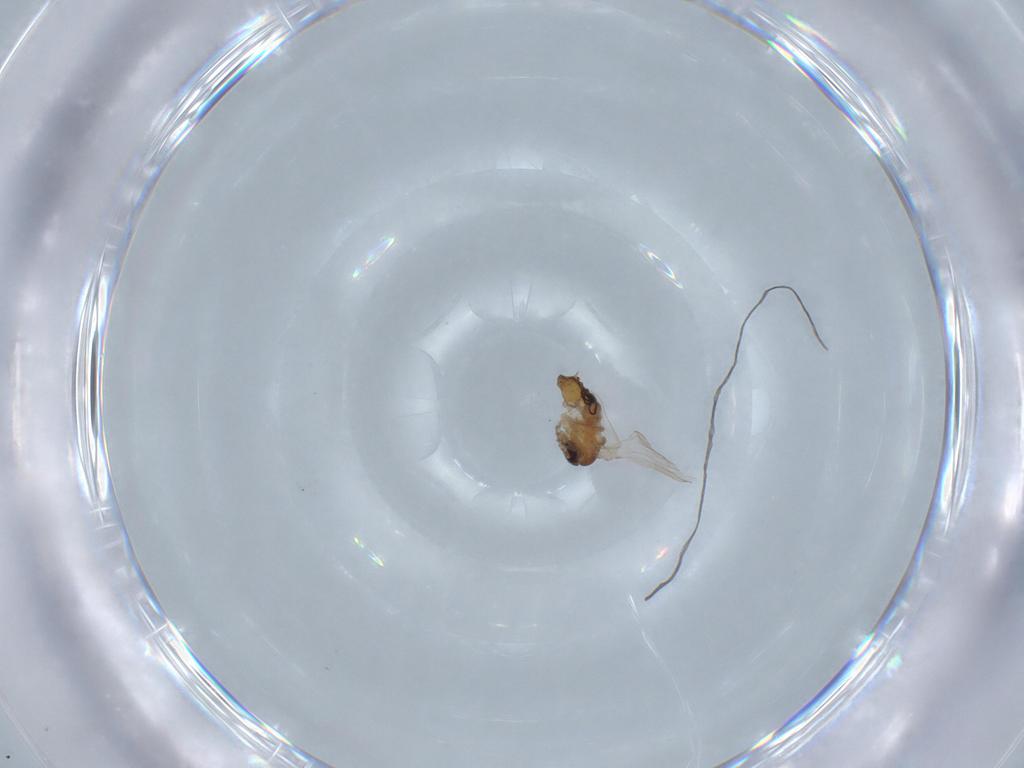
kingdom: Animalia
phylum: Arthropoda
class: Insecta
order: Diptera
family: Psychodidae
